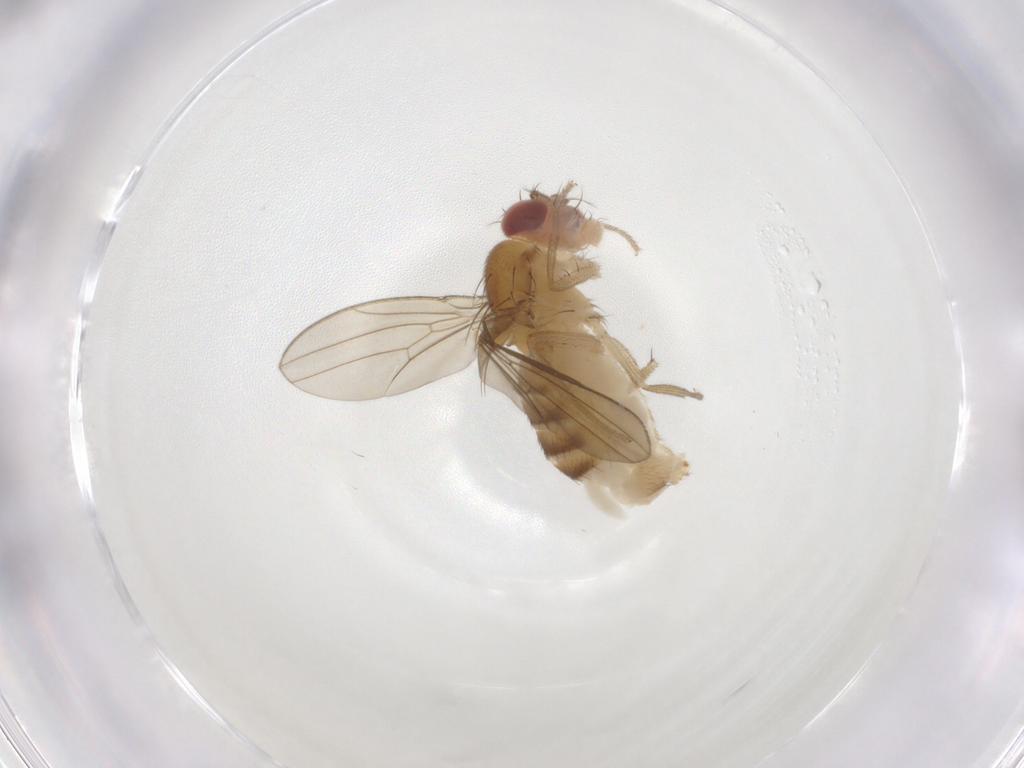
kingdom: Animalia
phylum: Arthropoda
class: Insecta
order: Diptera
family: Drosophilidae
